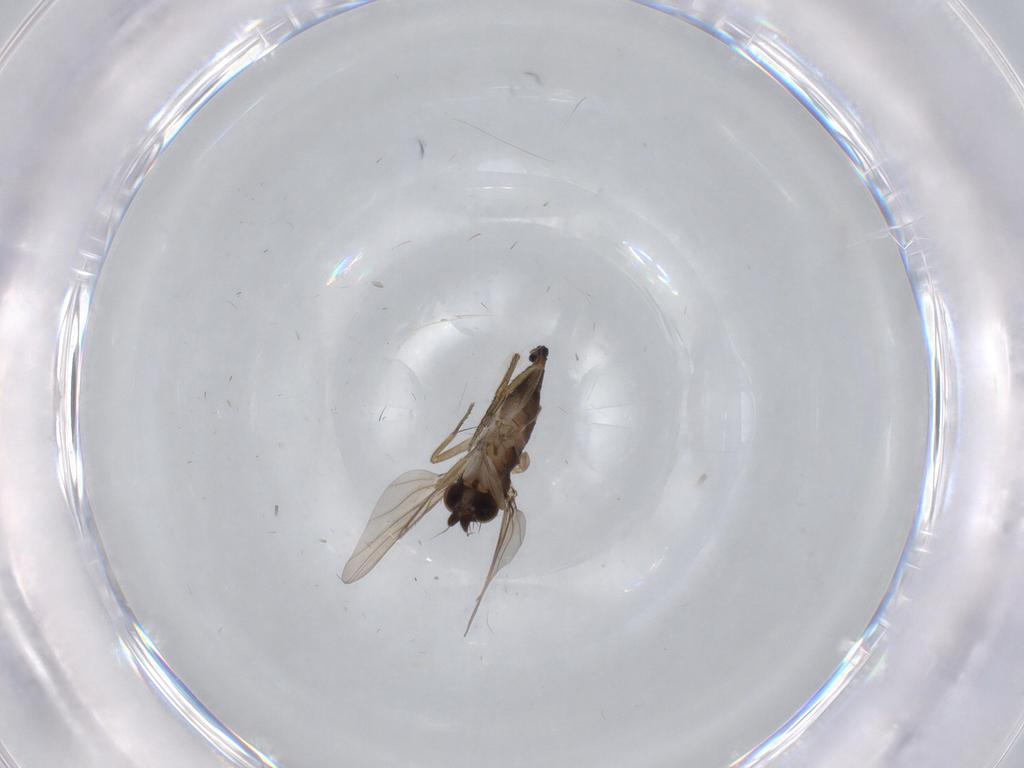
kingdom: Animalia
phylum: Arthropoda
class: Insecta
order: Diptera
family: Phoridae
